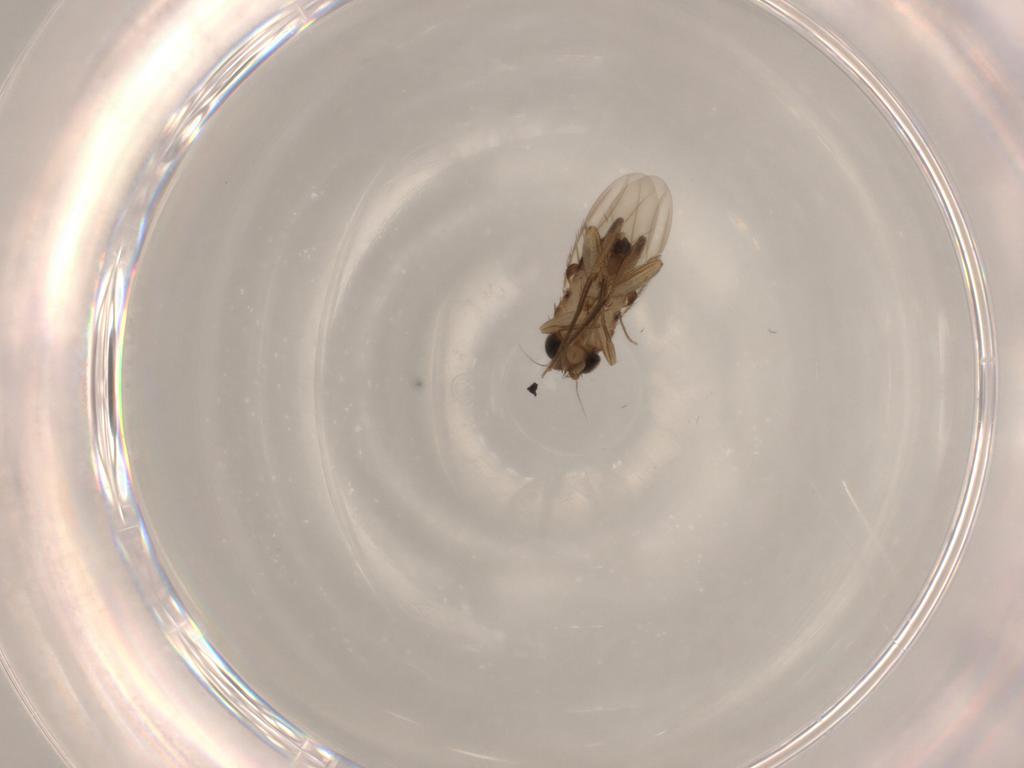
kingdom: Animalia
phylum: Arthropoda
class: Insecta
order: Diptera
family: Phoridae
